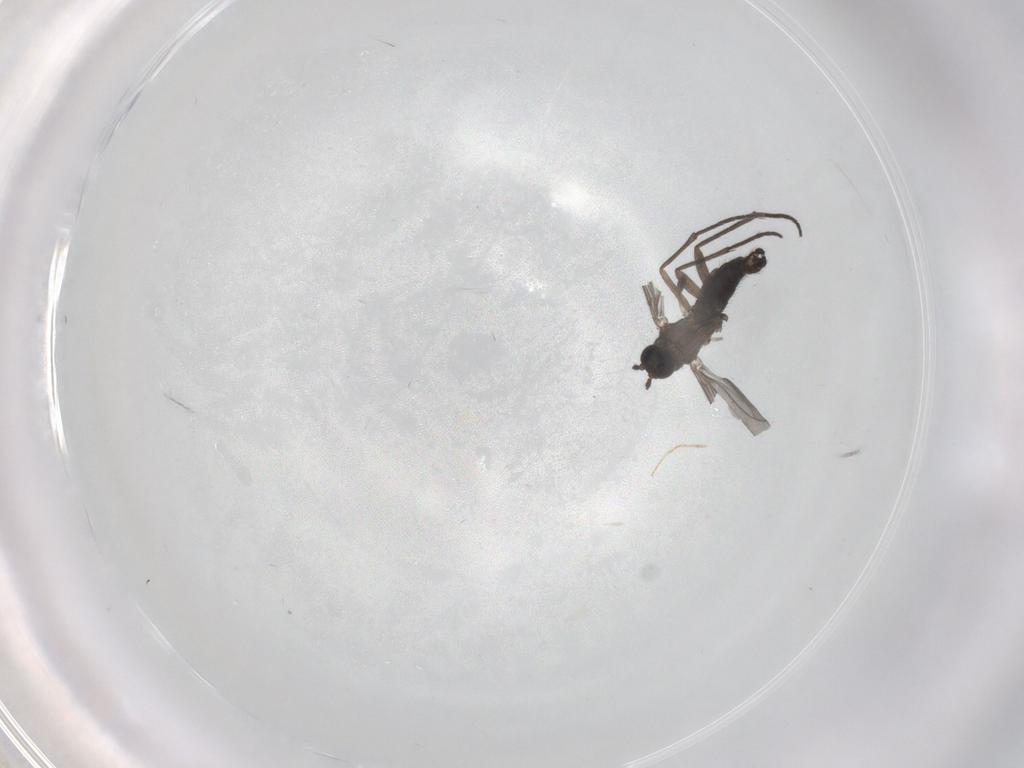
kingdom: Animalia
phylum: Arthropoda
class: Insecta
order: Diptera
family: Sciaridae
